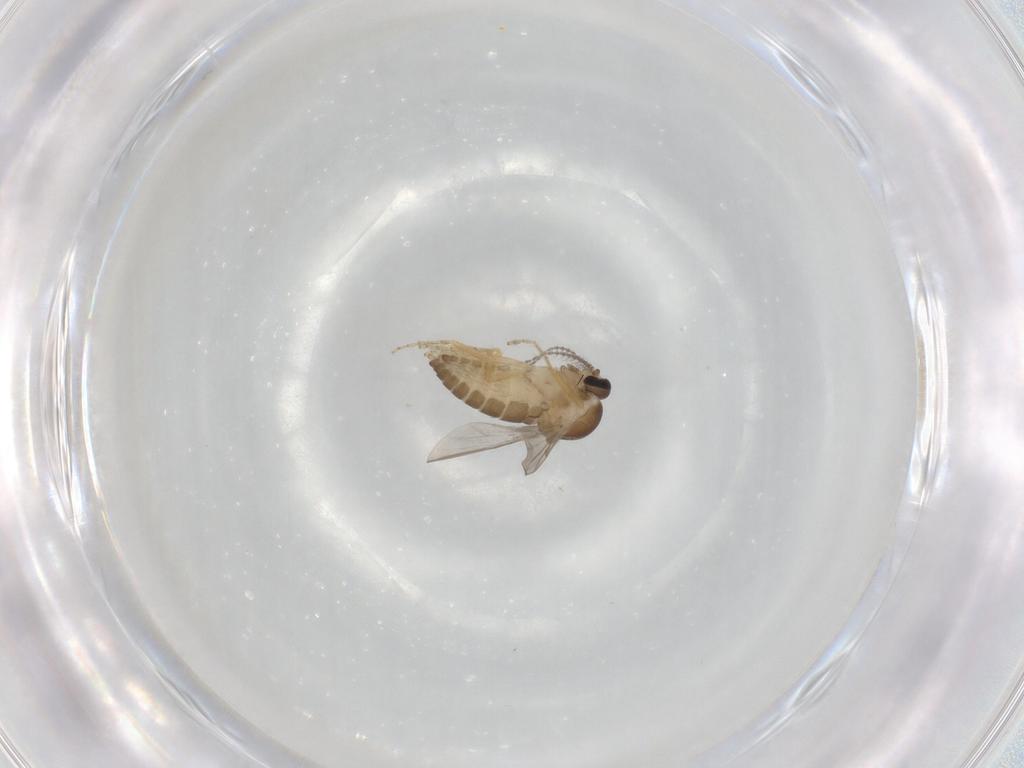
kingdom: Animalia
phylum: Arthropoda
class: Insecta
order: Diptera
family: Ceratopogonidae
